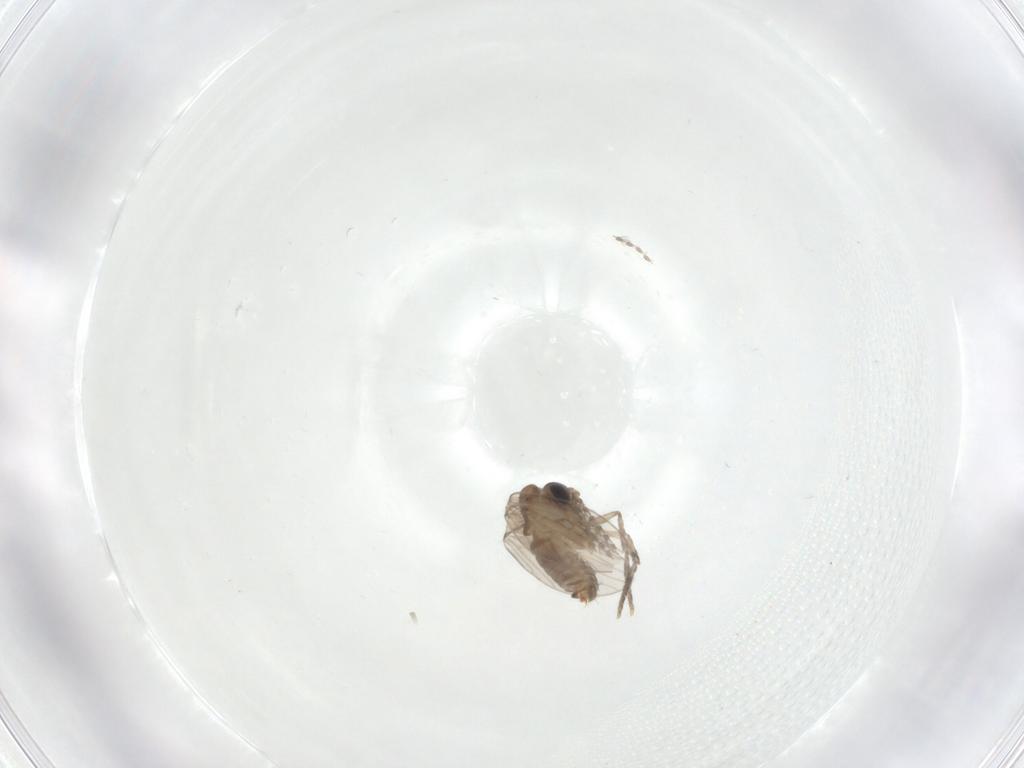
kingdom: Animalia
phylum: Arthropoda
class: Insecta
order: Diptera
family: Psychodidae
